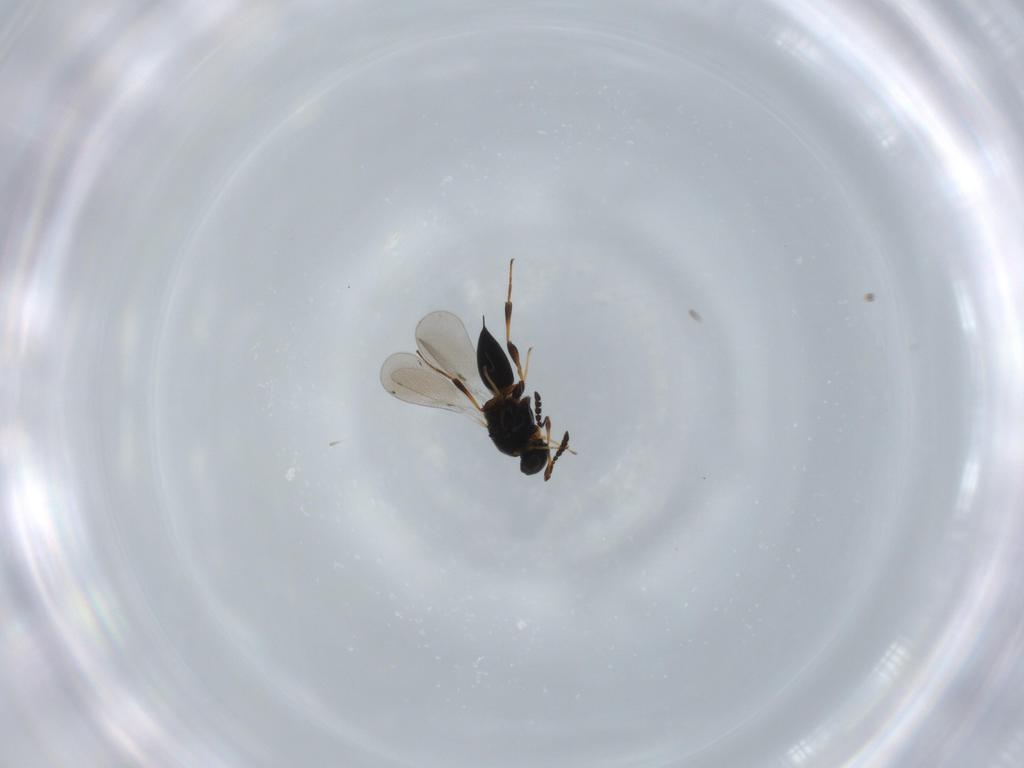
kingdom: Animalia
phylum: Arthropoda
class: Insecta
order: Hymenoptera
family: Platygastridae
